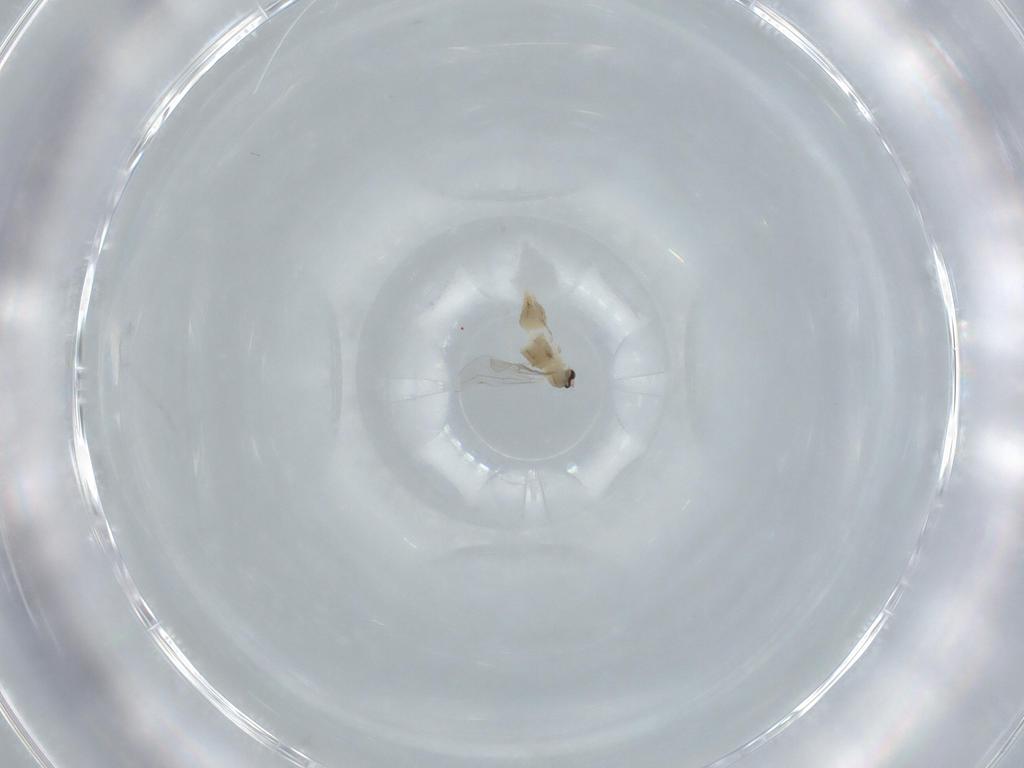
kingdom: Animalia
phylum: Arthropoda
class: Insecta
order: Diptera
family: Cecidomyiidae
